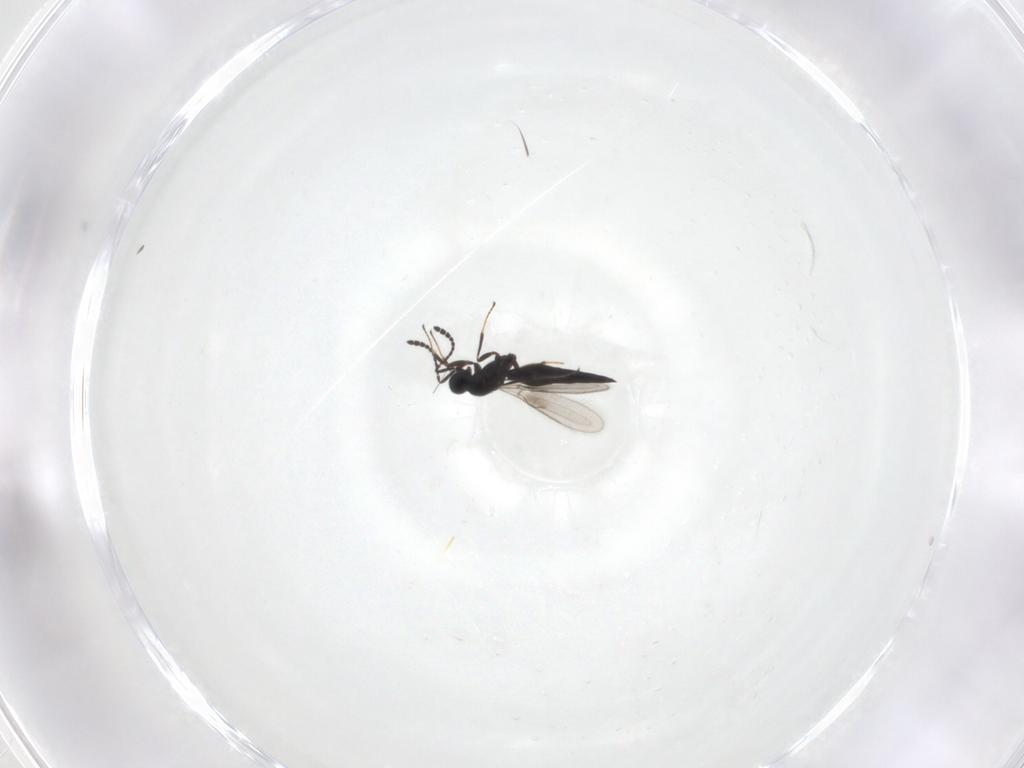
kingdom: Animalia
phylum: Arthropoda
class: Insecta
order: Hymenoptera
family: Scelionidae
